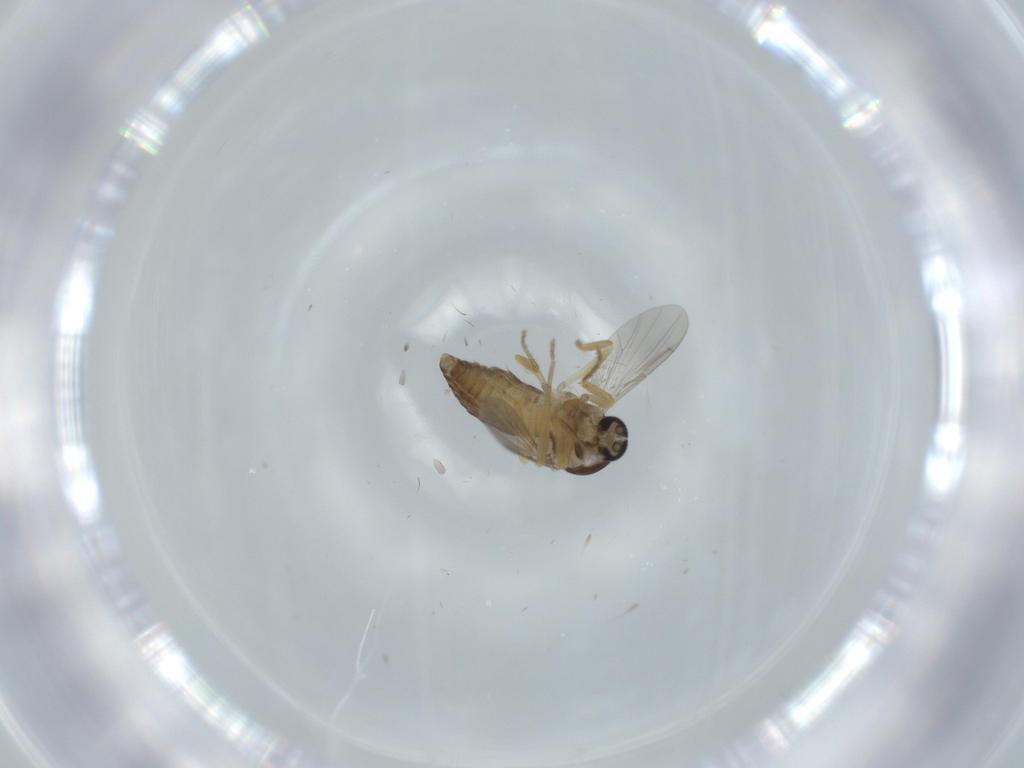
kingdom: Animalia
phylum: Arthropoda
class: Insecta
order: Diptera
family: Ceratopogonidae
